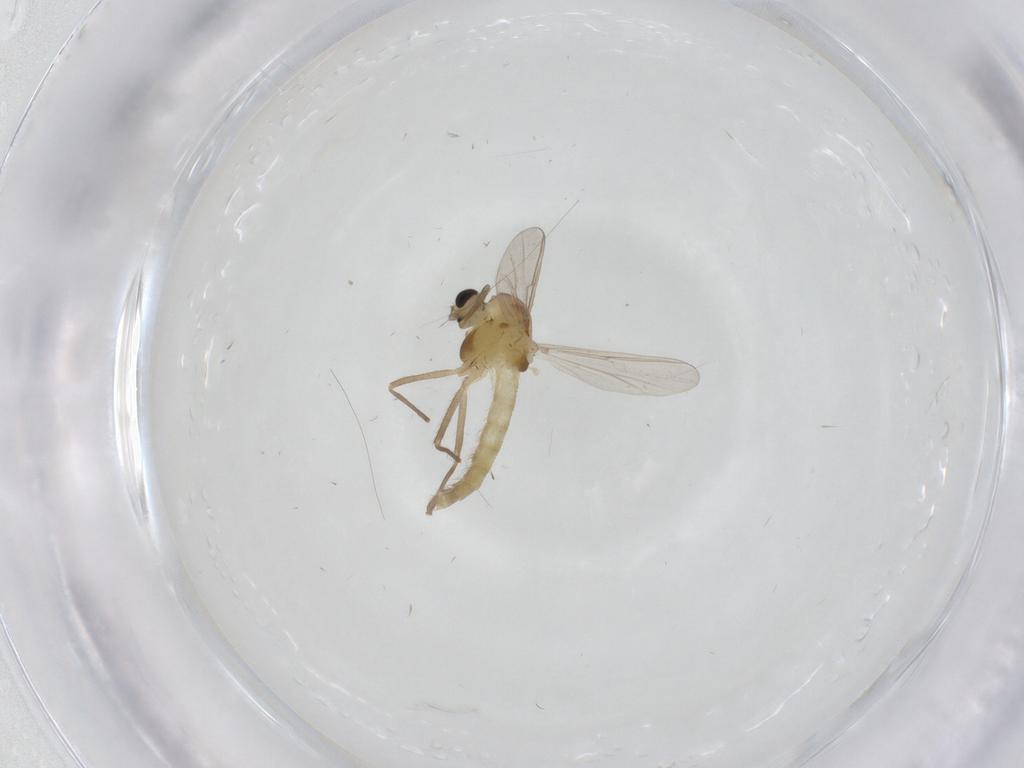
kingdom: Animalia
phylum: Arthropoda
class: Insecta
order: Diptera
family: Chironomidae
